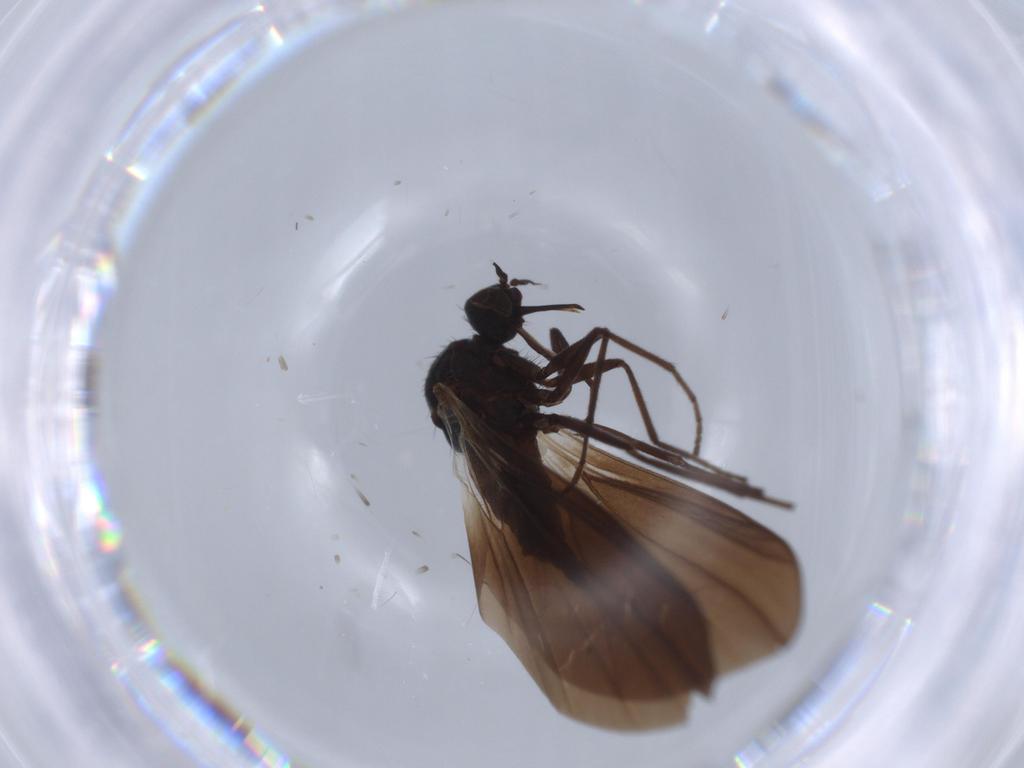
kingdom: Animalia
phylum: Arthropoda
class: Insecta
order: Diptera
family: Empididae
